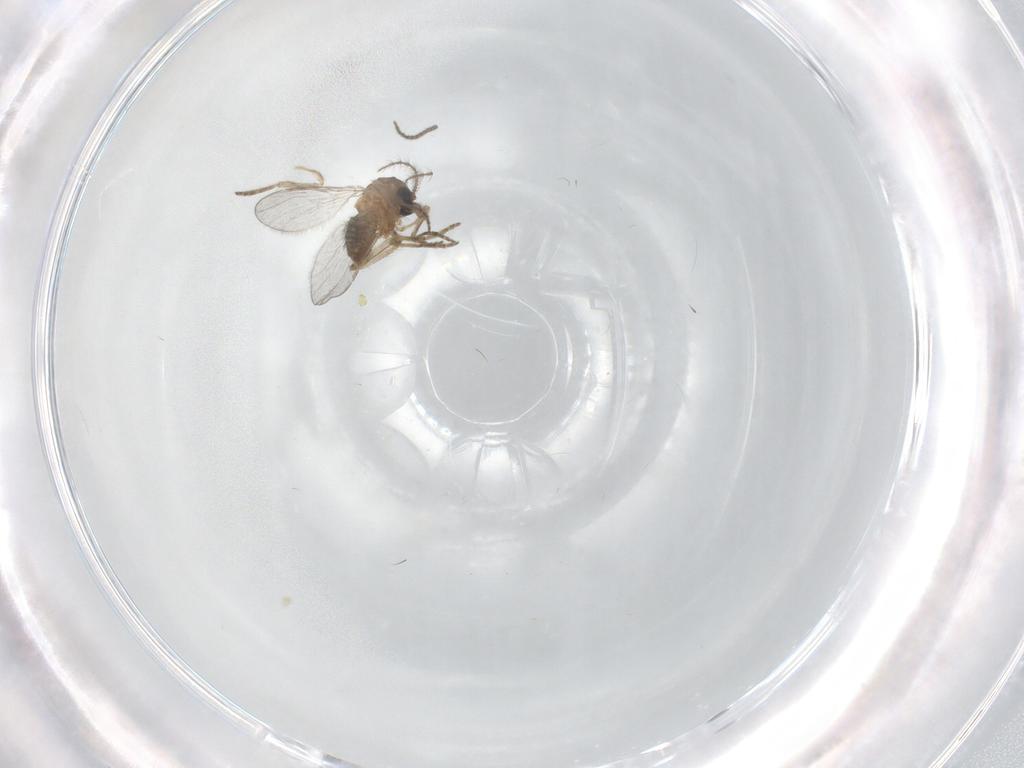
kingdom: Animalia
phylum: Arthropoda
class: Insecta
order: Diptera
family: Ceratopogonidae
